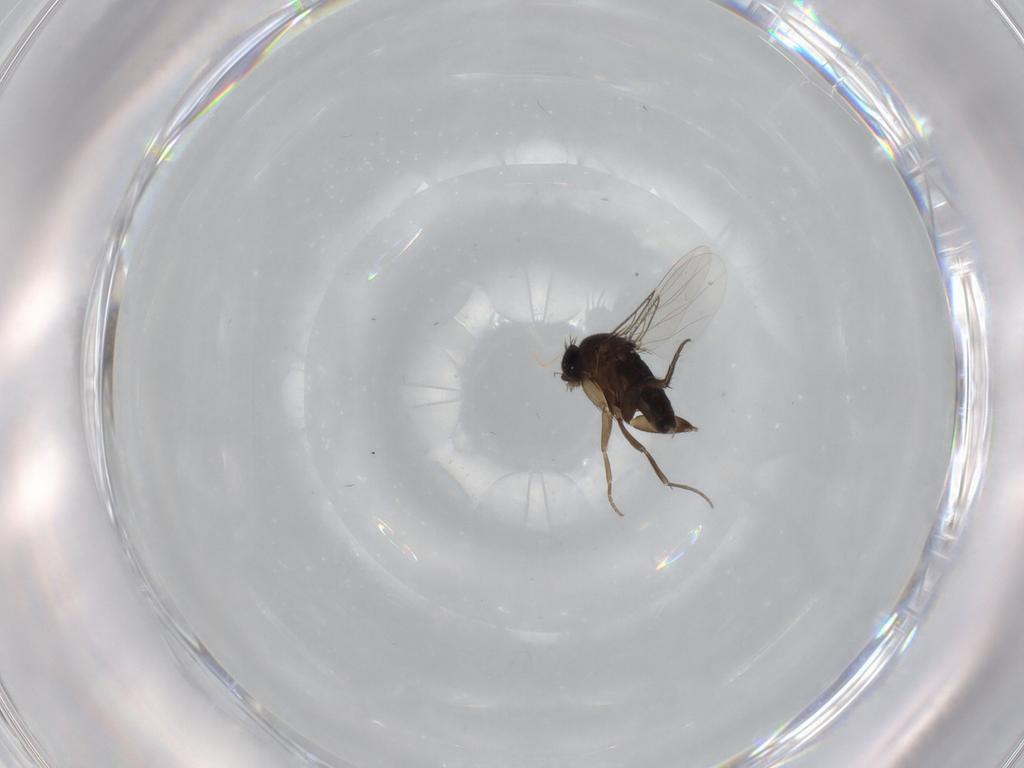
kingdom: Animalia
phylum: Arthropoda
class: Insecta
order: Diptera
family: Phoridae
